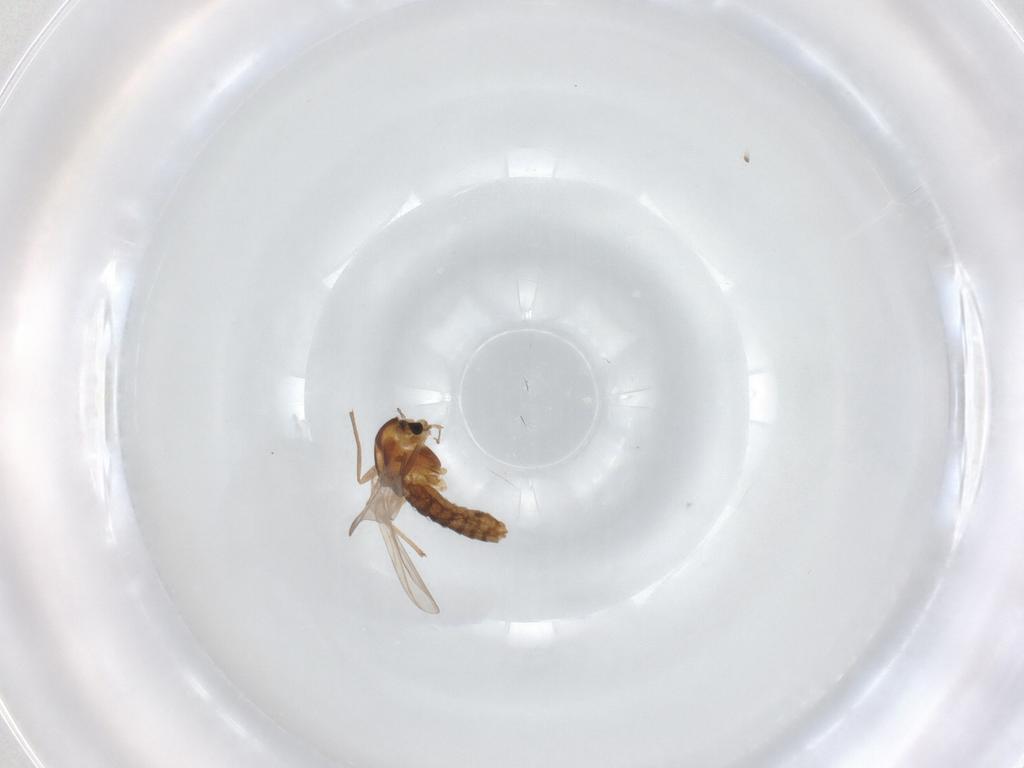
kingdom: Animalia
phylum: Arthropoda
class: Insecta
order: Diptera
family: Chironomidae
